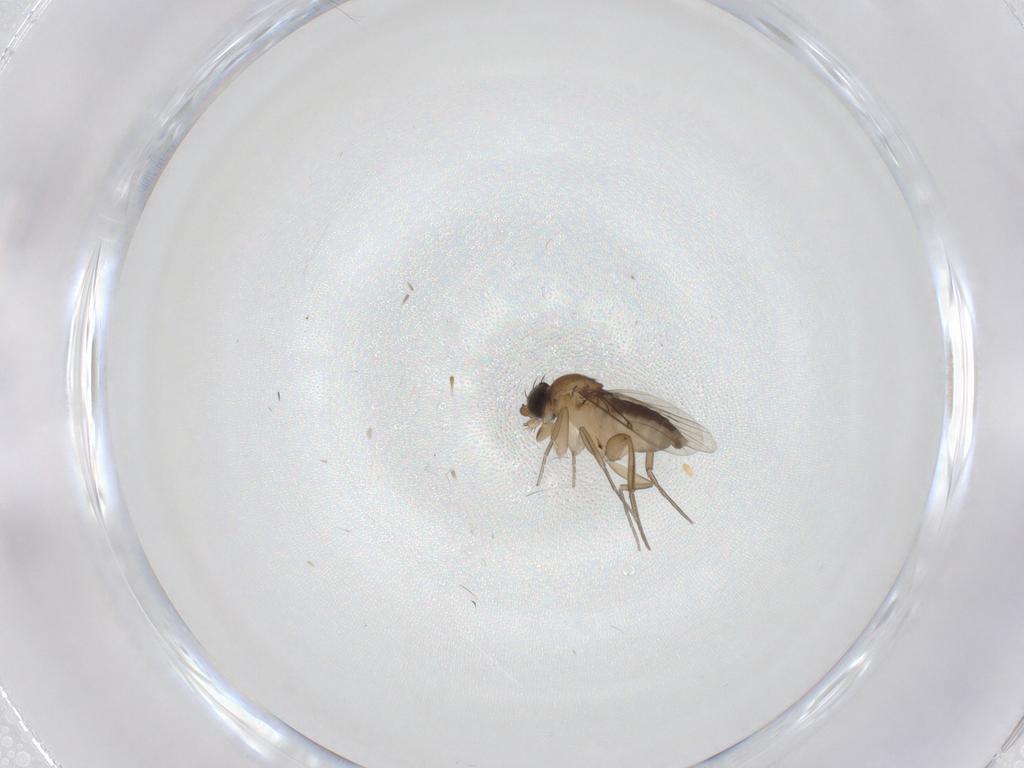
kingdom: Animalia
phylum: Arthropoda
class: Insecta
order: Diptera
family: Phoridae
